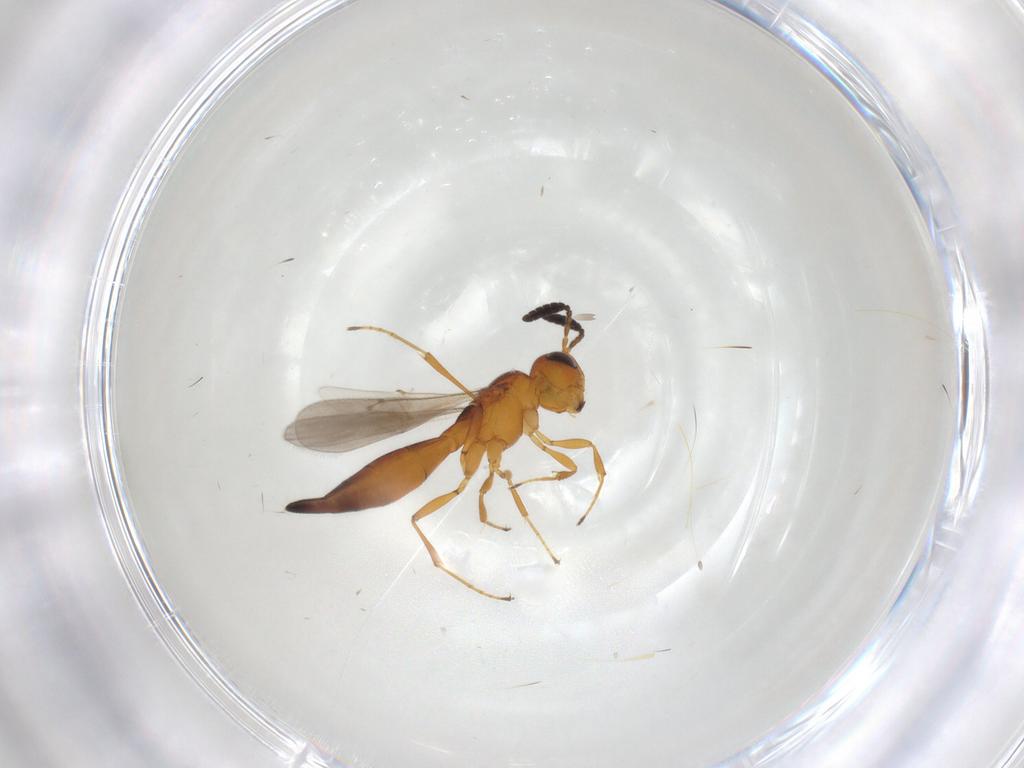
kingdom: Animalia
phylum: Arthropoda
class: Insecta
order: Hymenoptera
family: Scelionidae
